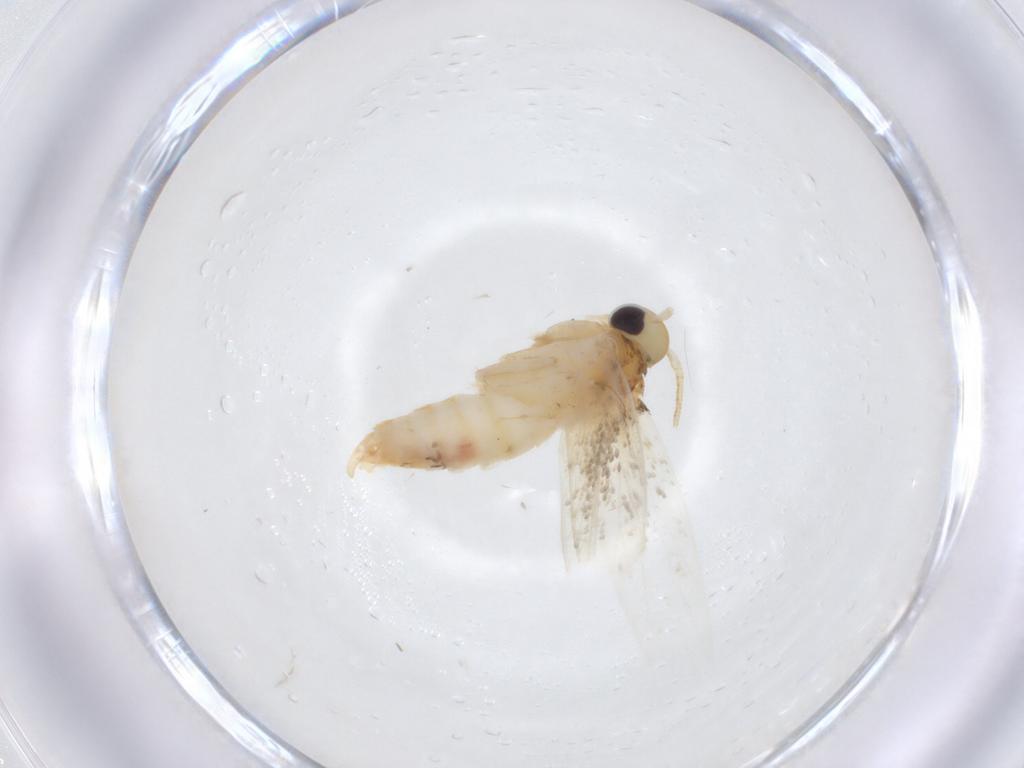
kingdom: Animalia
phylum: Arthropoda
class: Insecta
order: Lepidoptera
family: Erebidae
